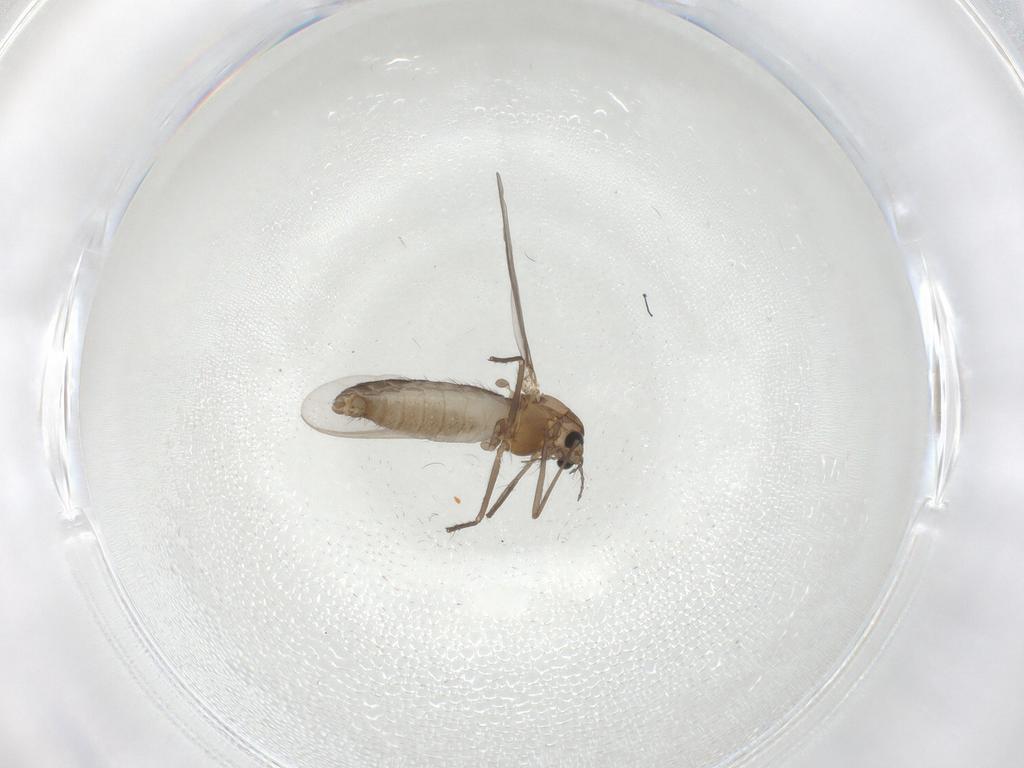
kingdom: Animalia
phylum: Arthropoda
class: Insecta
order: Diptera
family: Chironomidae
